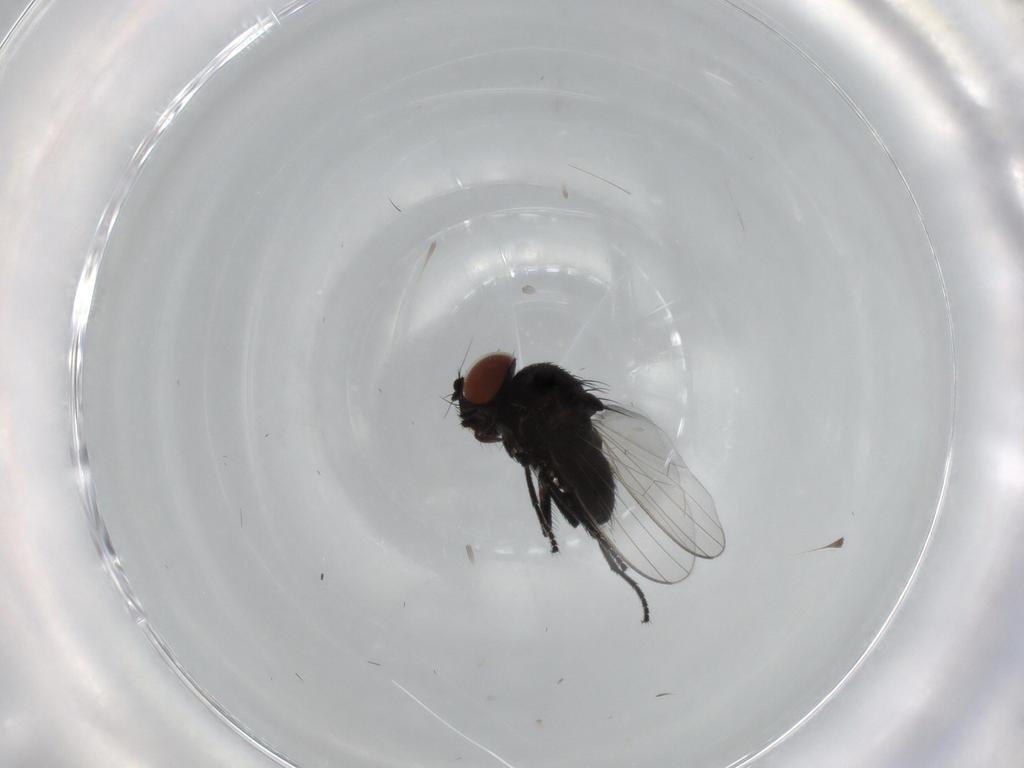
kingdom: Animalia
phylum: Arthropoda
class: Insecta
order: Diptera
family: Milichiidae
